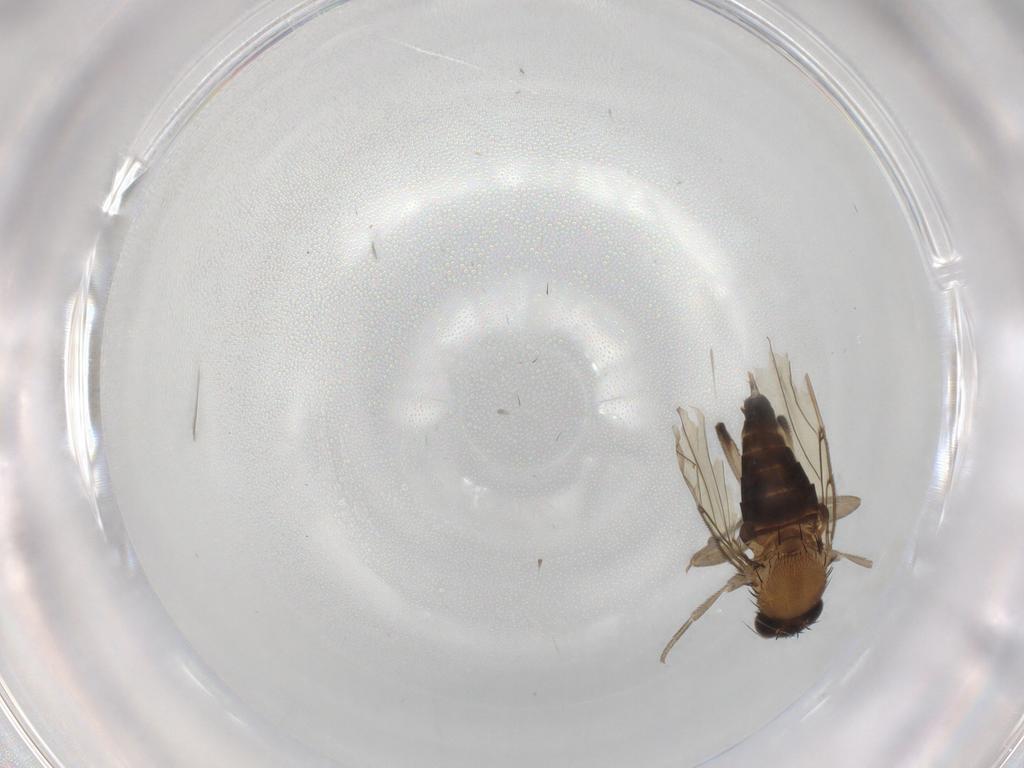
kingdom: Animalia
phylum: Arthropoda
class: Insecta
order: Diptera
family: Phoridae
